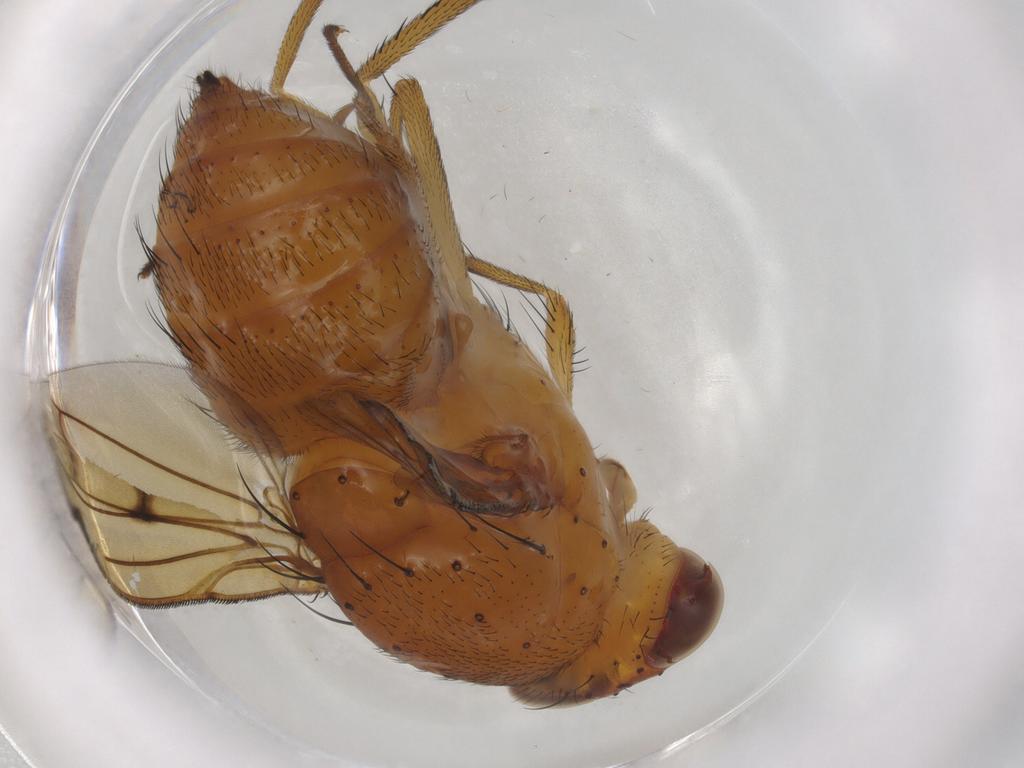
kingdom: Animalia
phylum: Arthropoda
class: Insecta
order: Diptera
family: Cecidomyiidae
